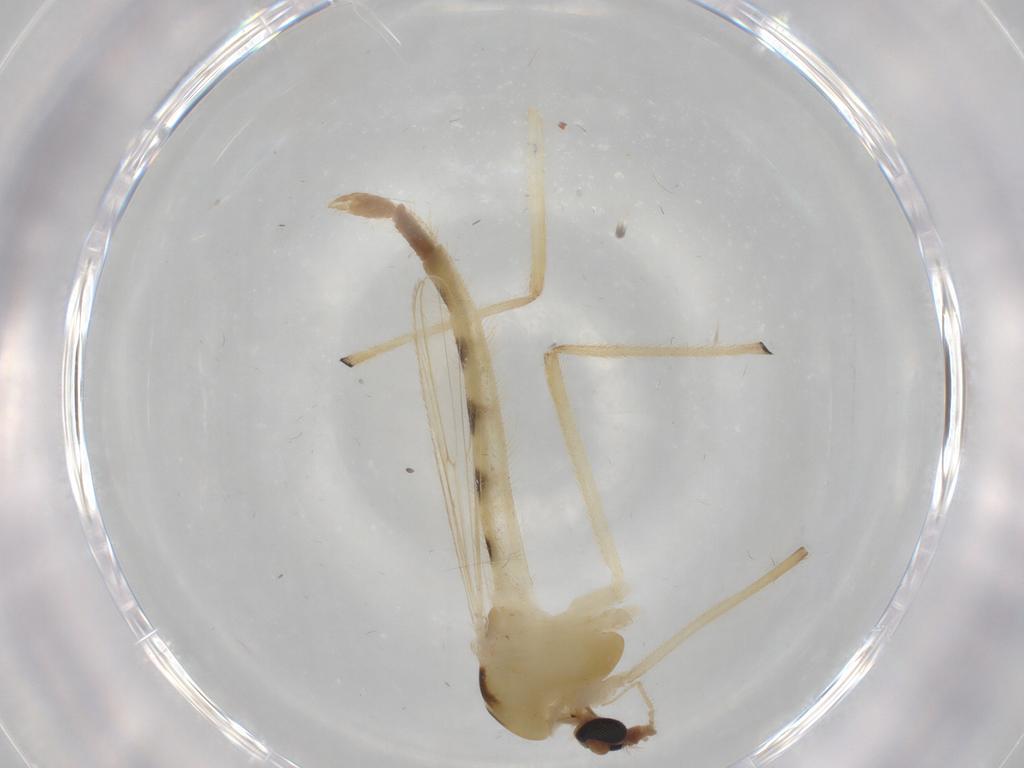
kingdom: Animalia
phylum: Arthropoda
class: Insecta
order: Diptera
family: Chironomidae
